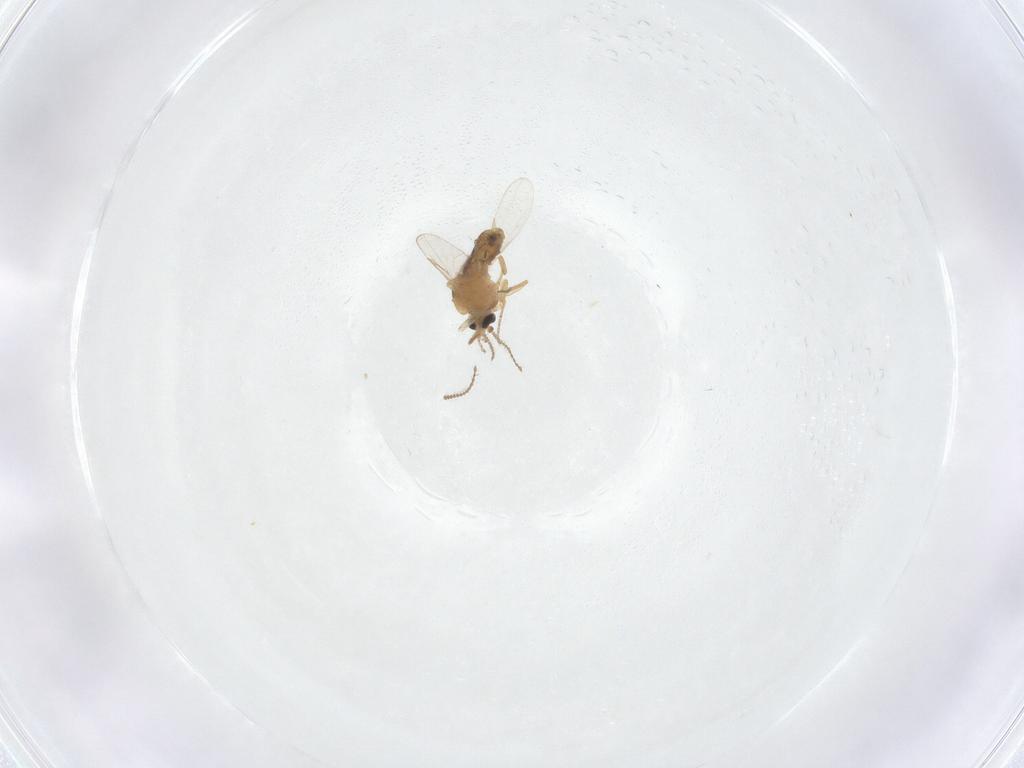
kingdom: Animalia
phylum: Arthropoda
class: Insecta
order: Diptera
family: Ceratopogonidae
